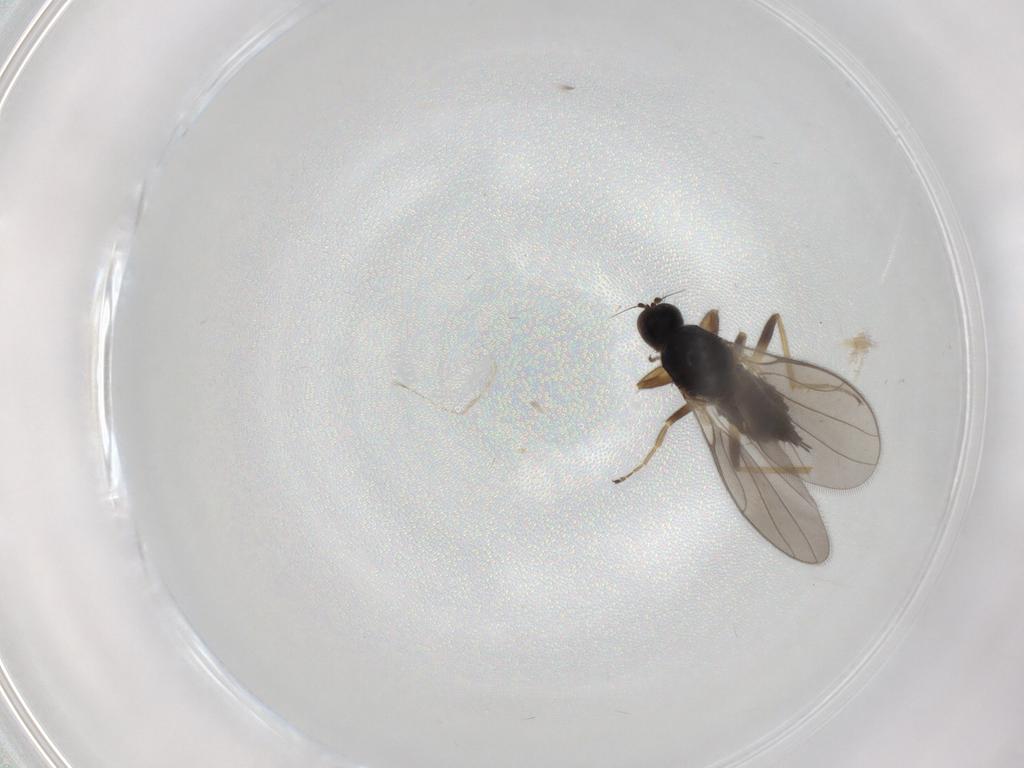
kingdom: Animalia
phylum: Arthropoda
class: Insecta
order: Diptera
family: Hybotidae
